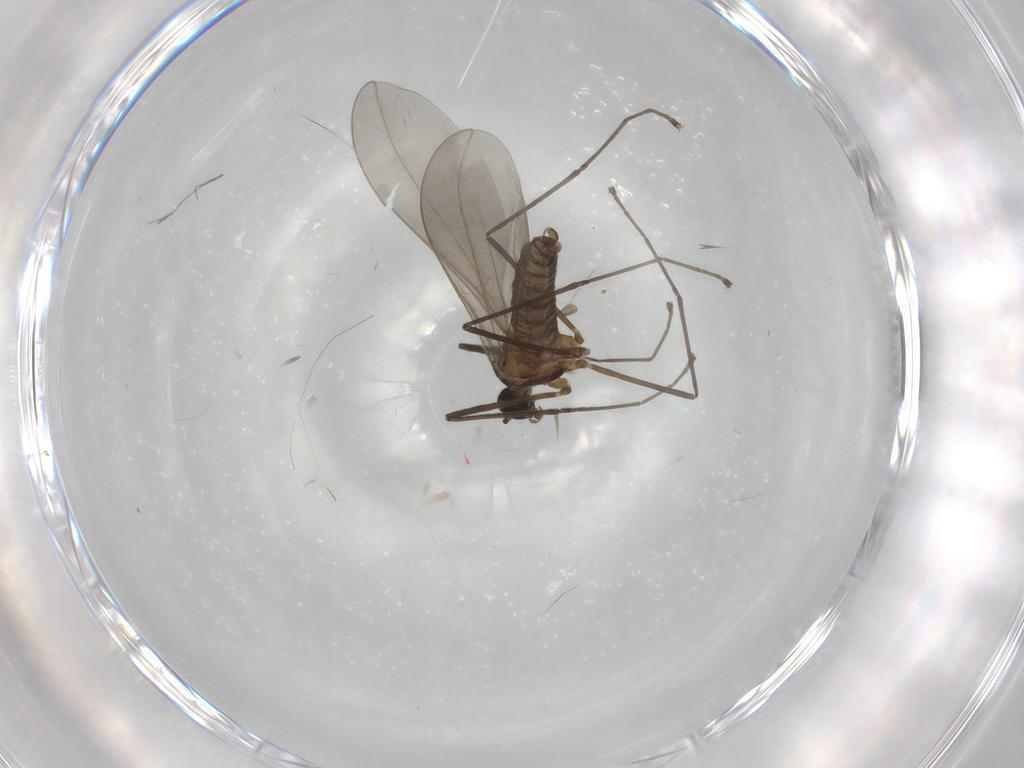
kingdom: Animalia
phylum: Arthropoda
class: Insecta
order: Diptera
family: Cecidomyiidae
